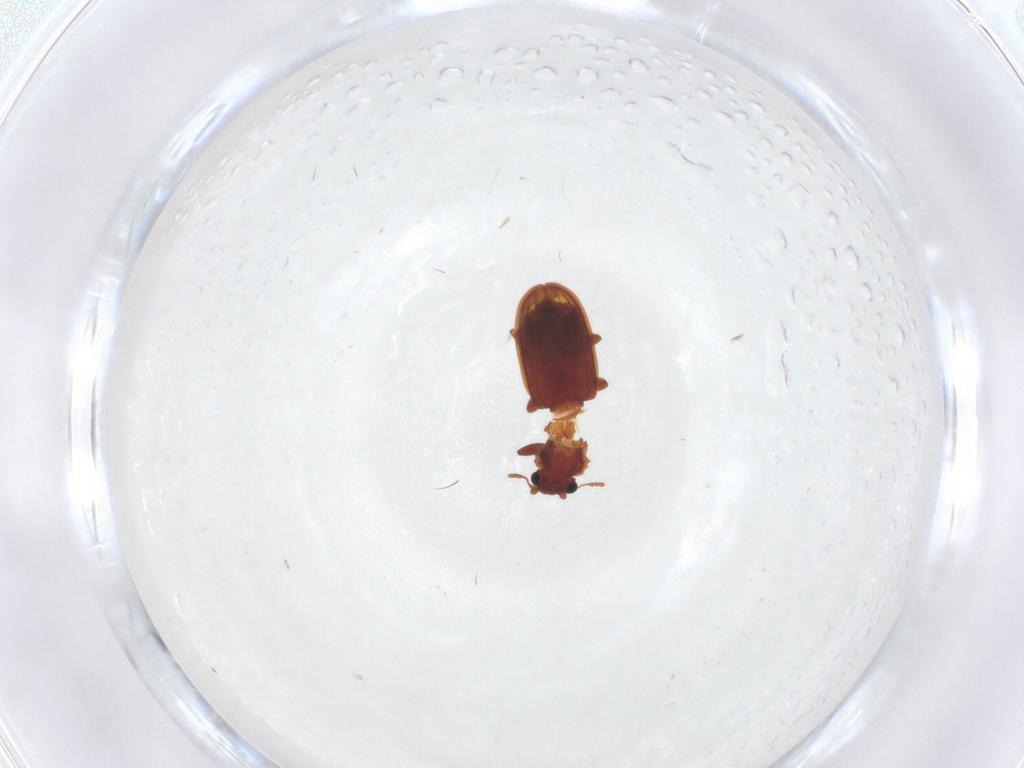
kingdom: Animalia
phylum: Arthropoda
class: Insecta
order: Coleoptera
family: Latridiidae
